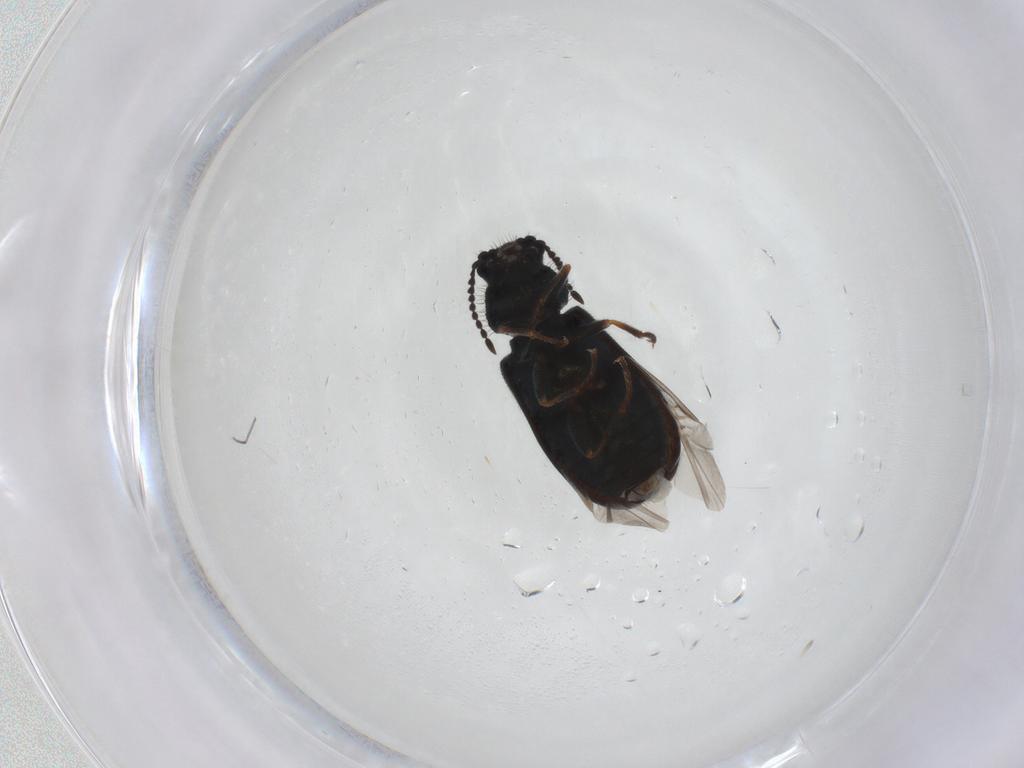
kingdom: Animalia
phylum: Arthropoda
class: Insecta
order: Coleoptera
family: Melyridae
